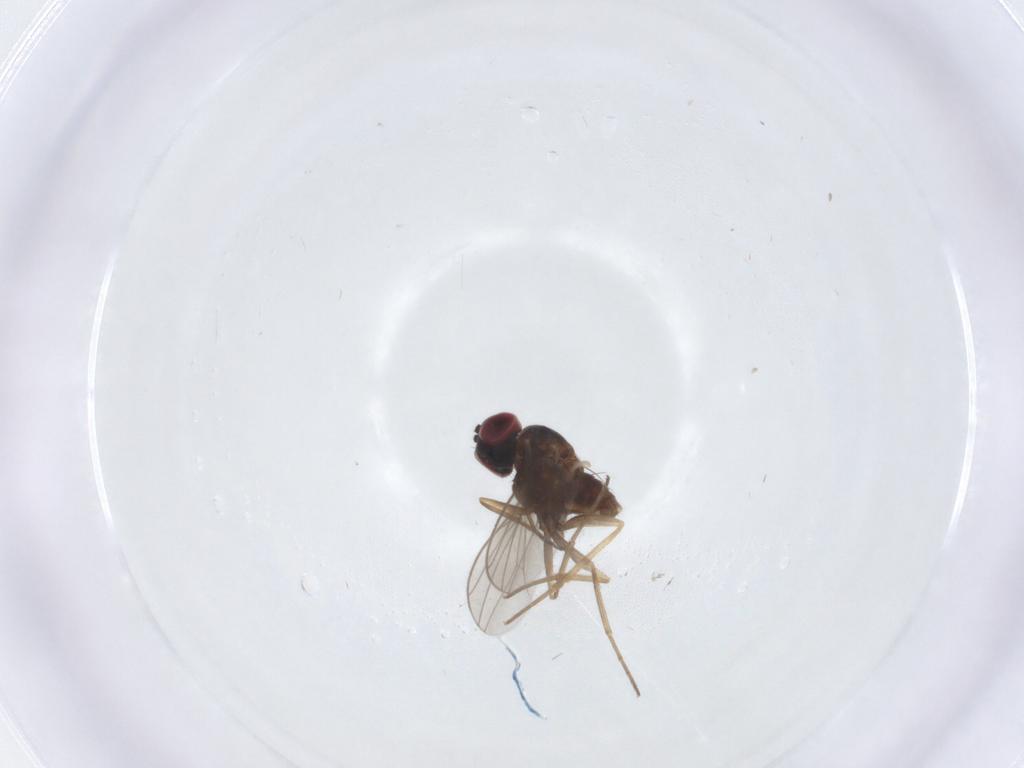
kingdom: Animalia
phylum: Arthropoda
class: Insecta
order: Diptera
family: Dolichopodidae
